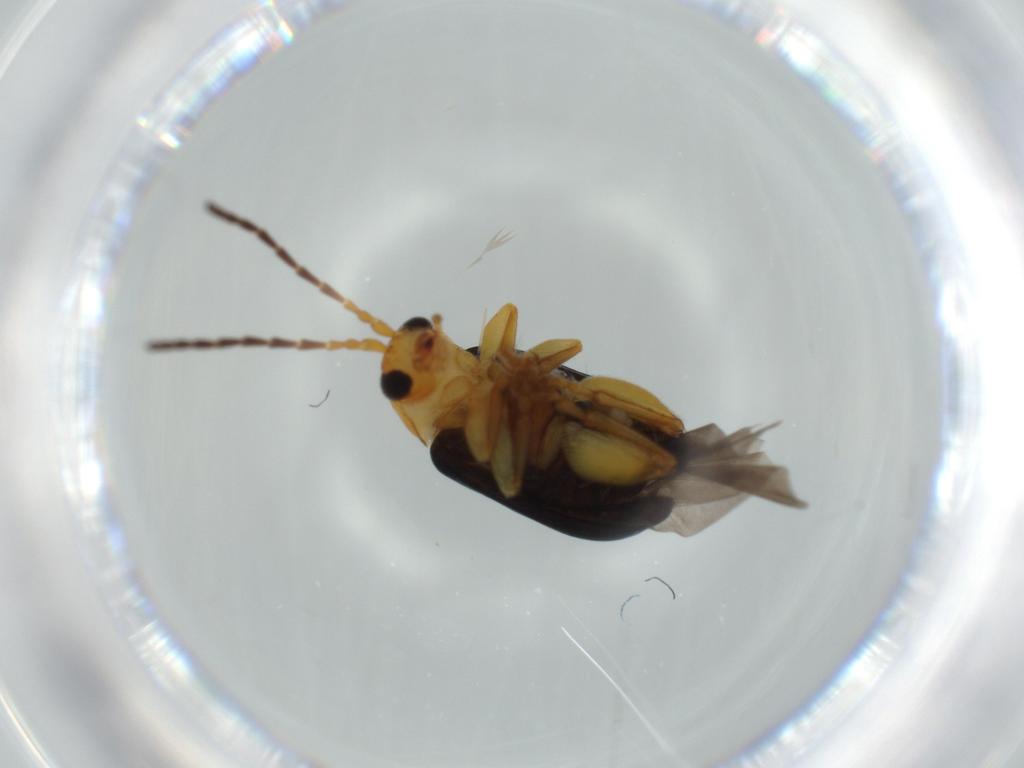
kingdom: Animalia
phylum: Arthropoda
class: Insecta
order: Coleoptera
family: Chrysomelidae
